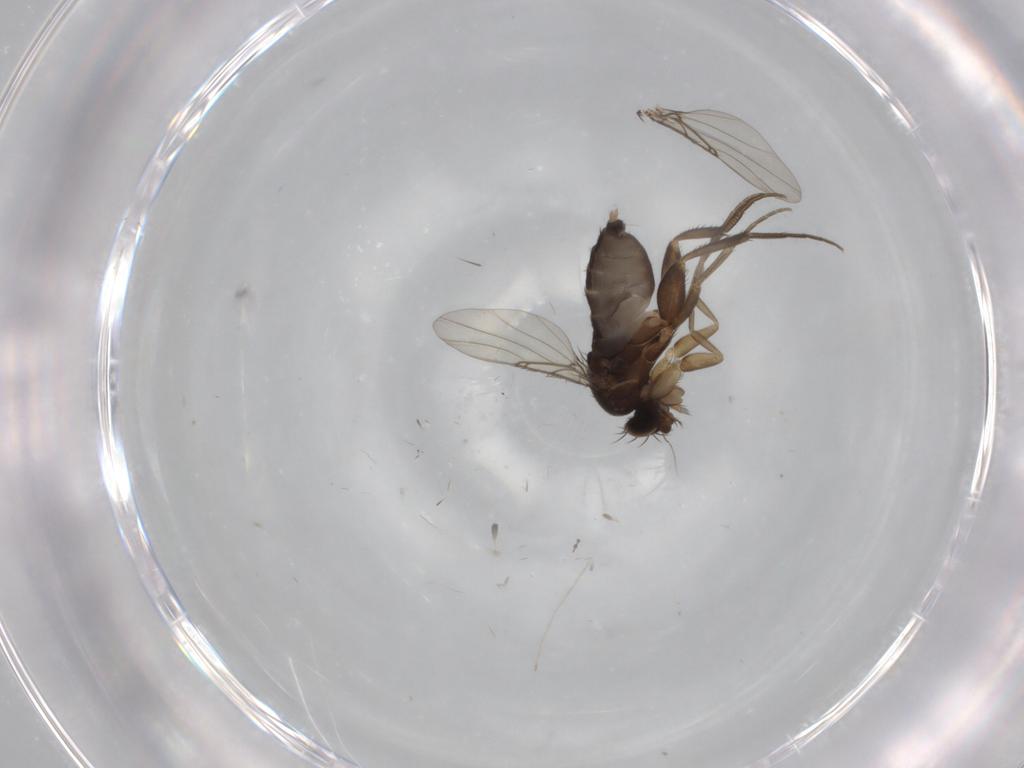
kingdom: Animalia
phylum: Arthropoda
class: Insecta
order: Diptera
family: Phoridae
